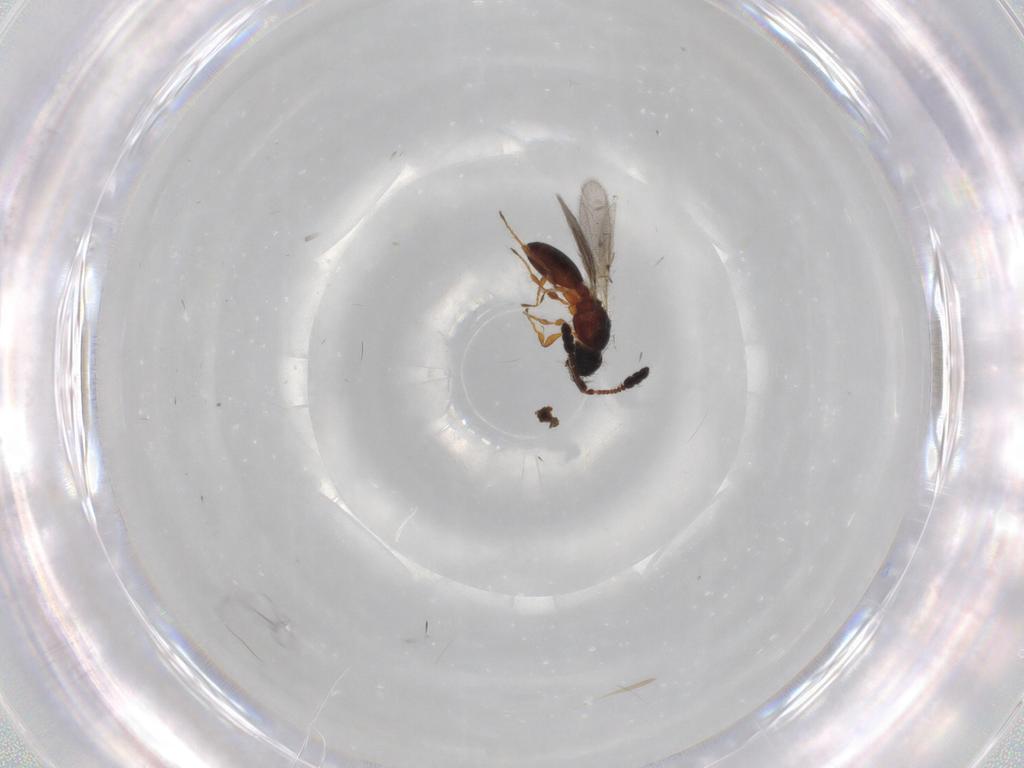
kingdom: Animalia
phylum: Arthropoda
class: Insecta
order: Hymenoptera
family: Diapriidae
